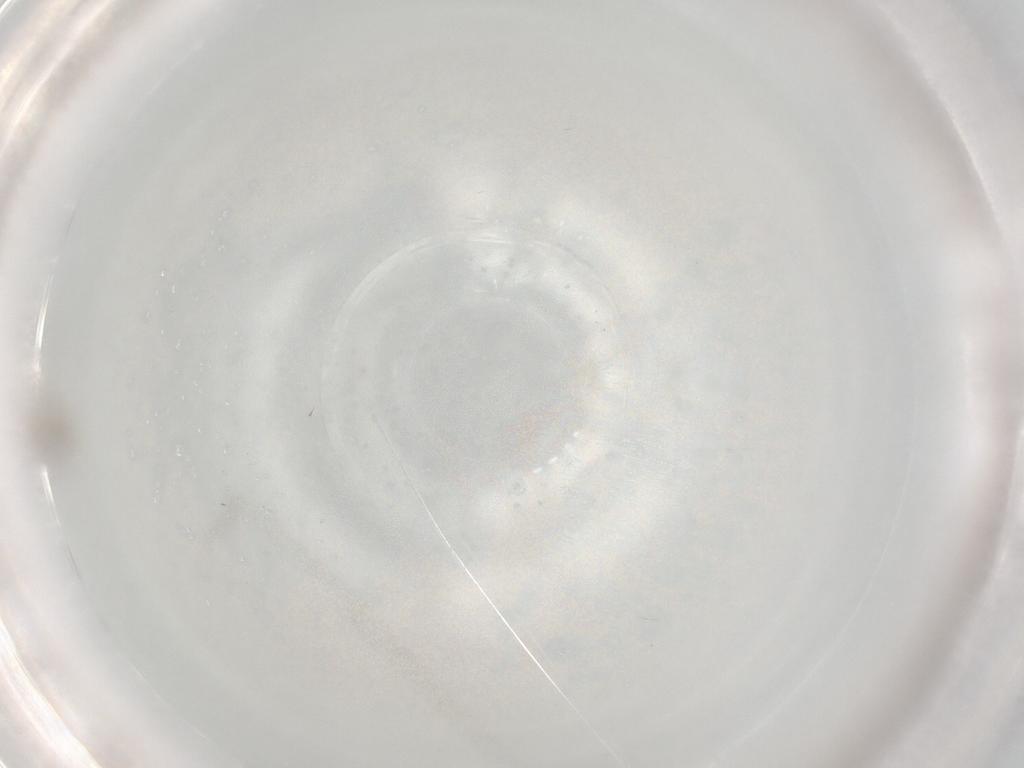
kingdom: Animalia
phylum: Arthropoda
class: Insecta
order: Diptera
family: Cecidomyiidae
